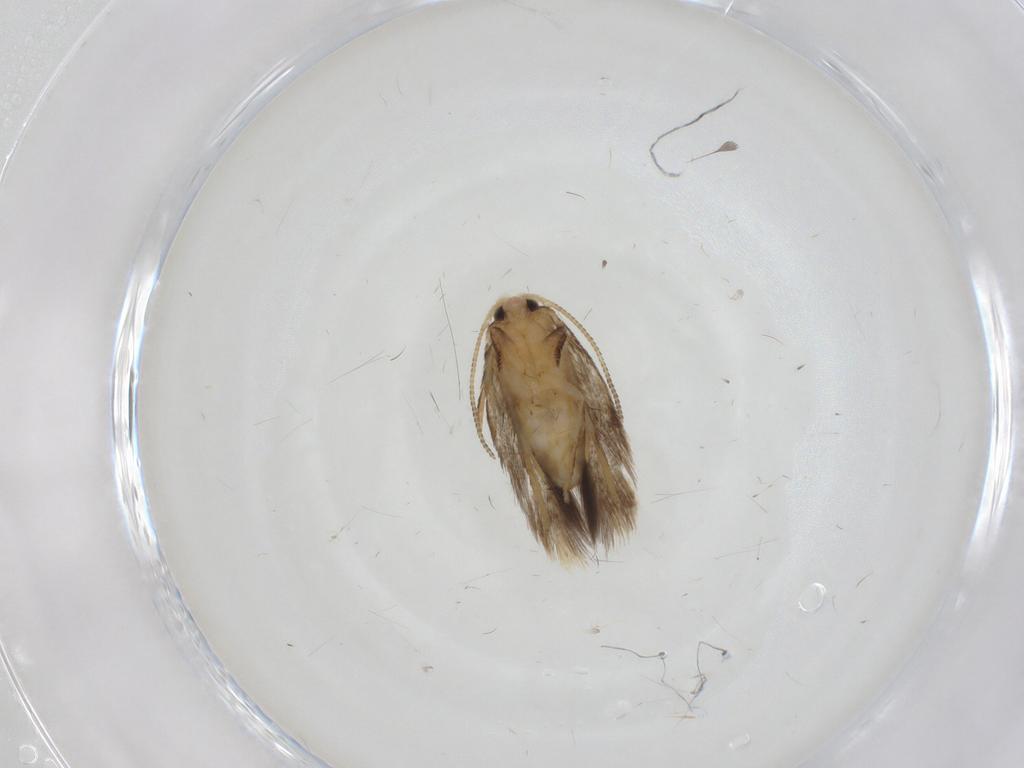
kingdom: Animalia
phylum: Arthropoda
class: Insecta
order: Lepidoptera
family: Nepticulidae
